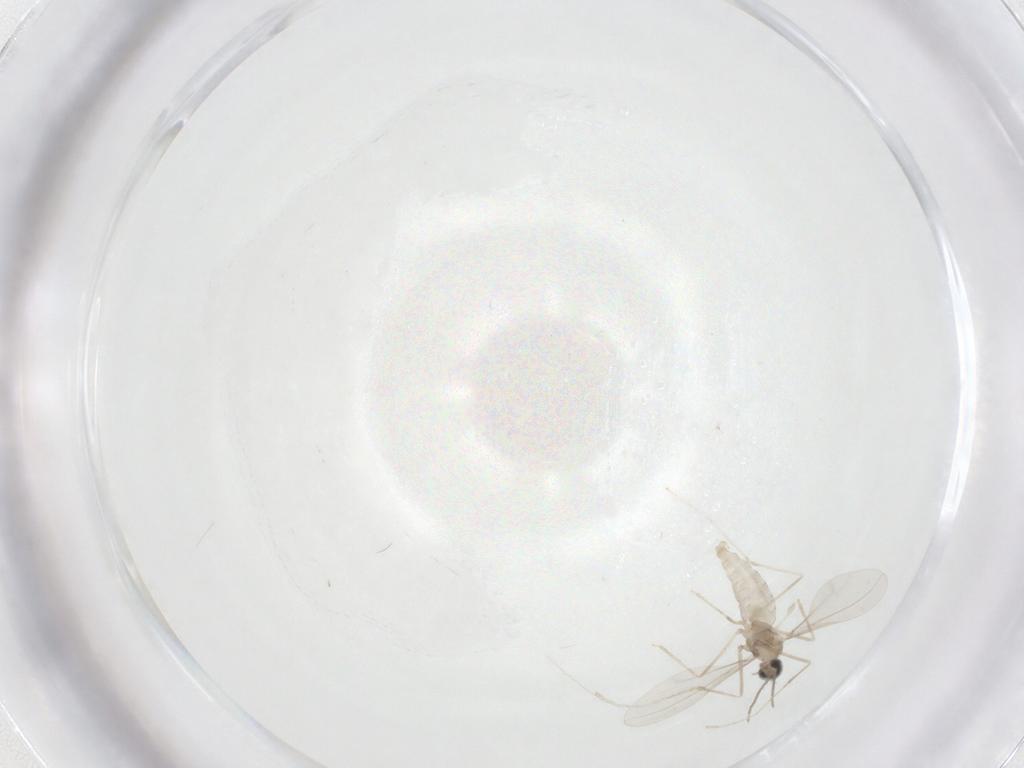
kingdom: Animalia
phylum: Arthropoda
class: Insecta
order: Diptera
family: Cecidomyiidae
